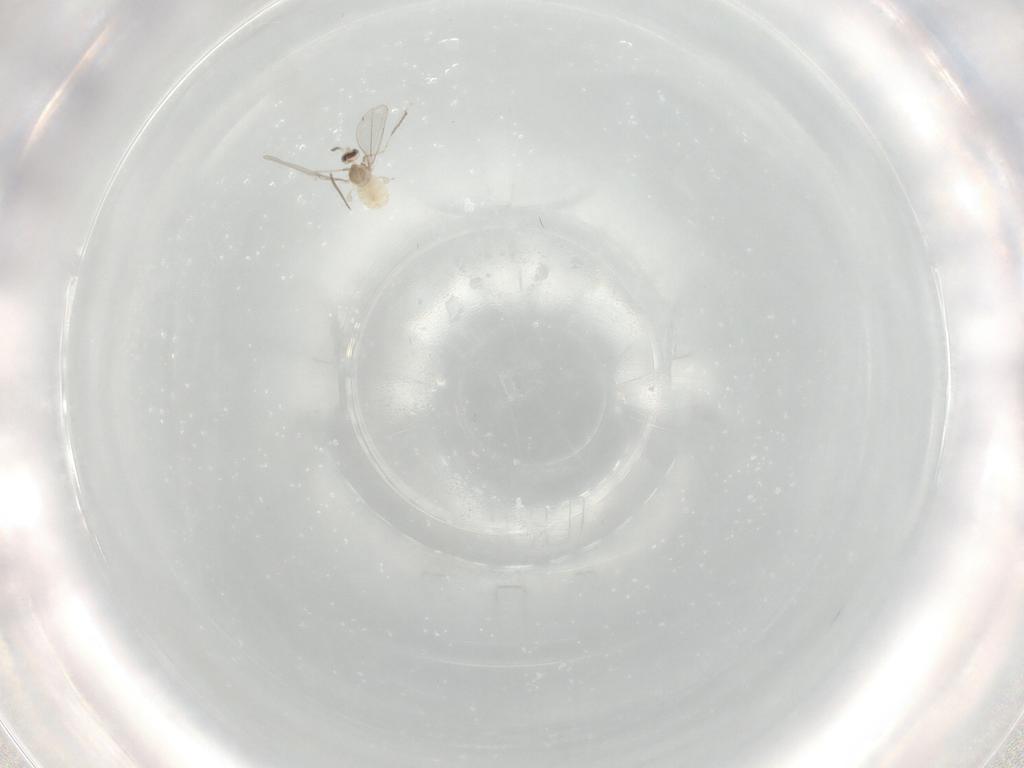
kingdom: Animalia
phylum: Arthropoda
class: Insecta
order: Diptera
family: Cecidomyiidae
